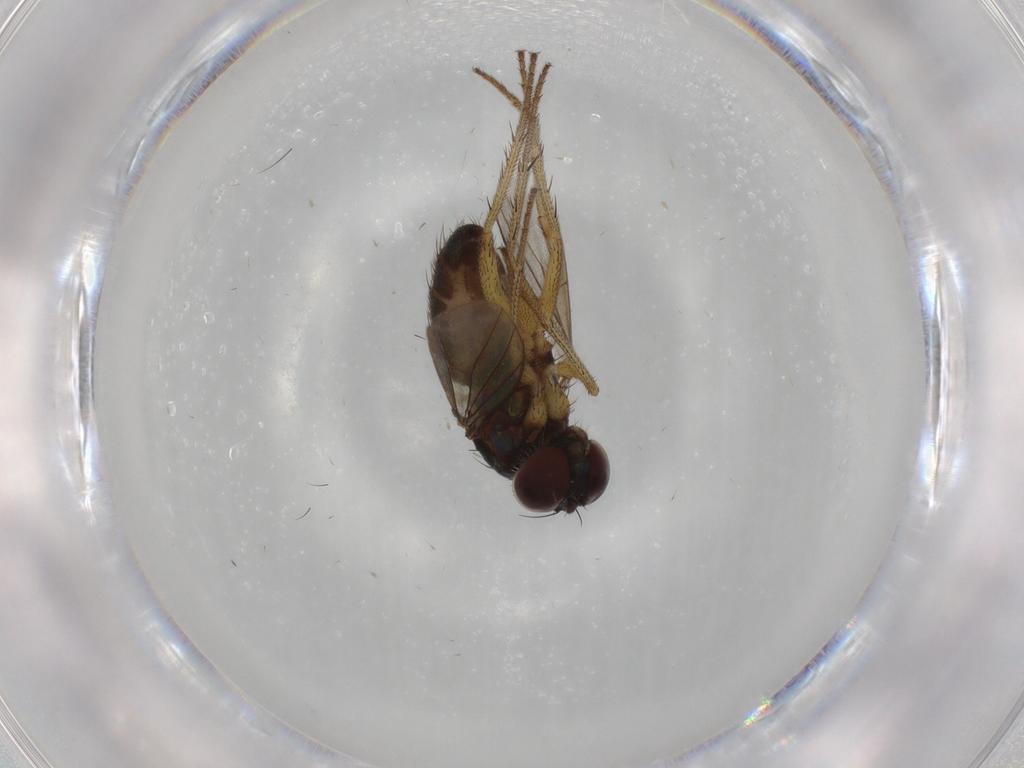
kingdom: Animalia
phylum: Arthropoda
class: Insecta
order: Diptera
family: Dolichopodidae
